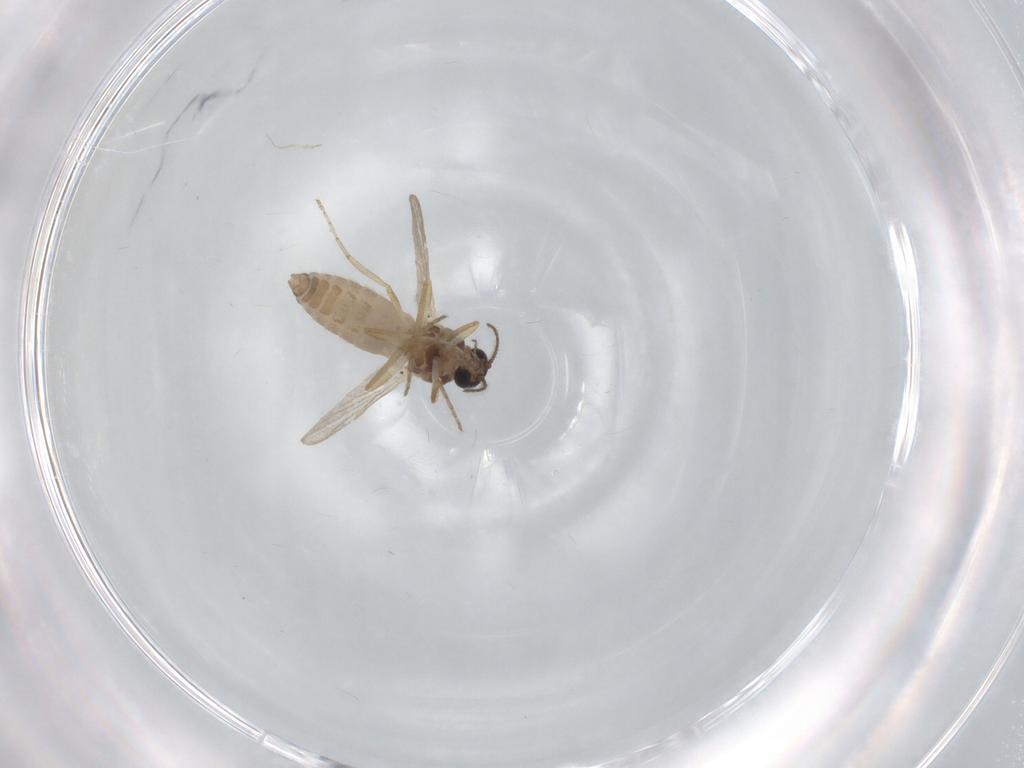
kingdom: Animalia
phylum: Arthropoda
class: Insecta
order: Diptera
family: Ceratopogonidae
